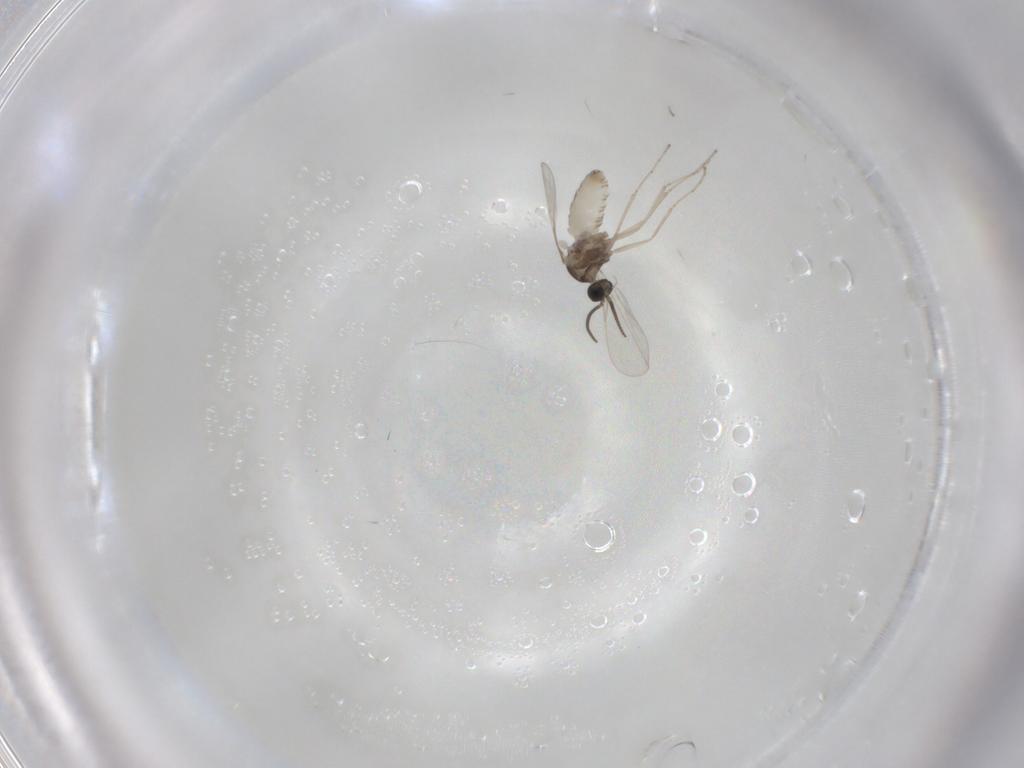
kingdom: Animalia
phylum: Arthropoda
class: Insecta
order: Diptera
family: Cecidomyiidae
